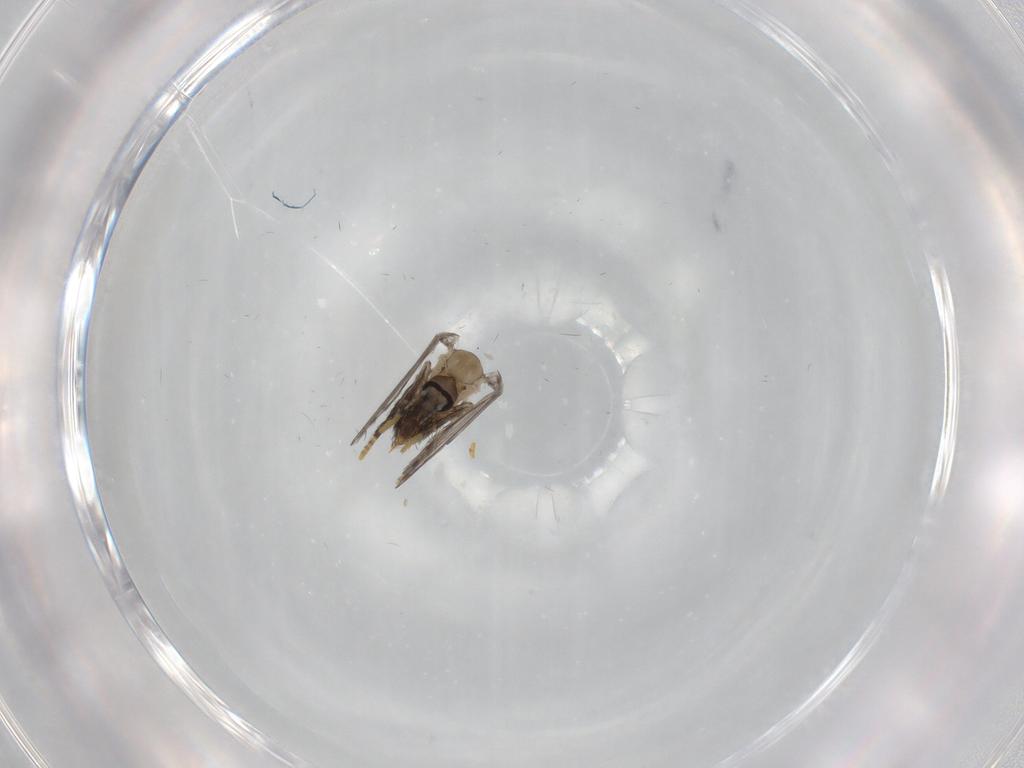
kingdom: Animalia
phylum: Arthropoda
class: Insecta
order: Diptera
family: Psychodidae
